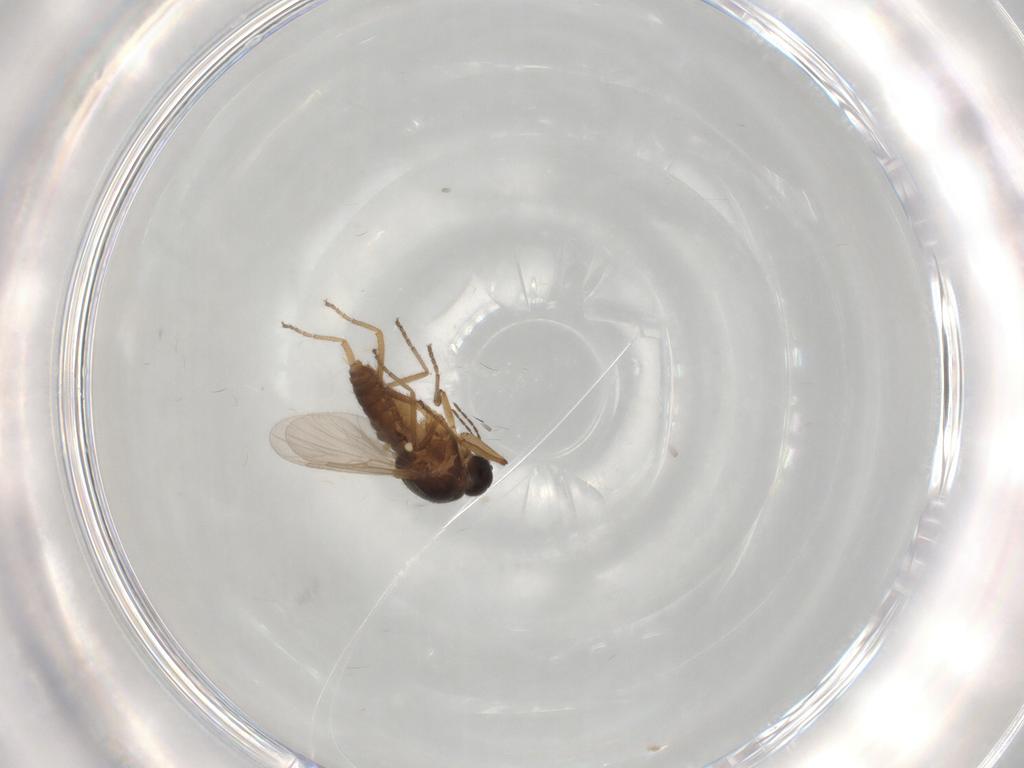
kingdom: Animalia
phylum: Arthropoda
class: Insecta
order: Diptera
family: Ceratopogonidae
